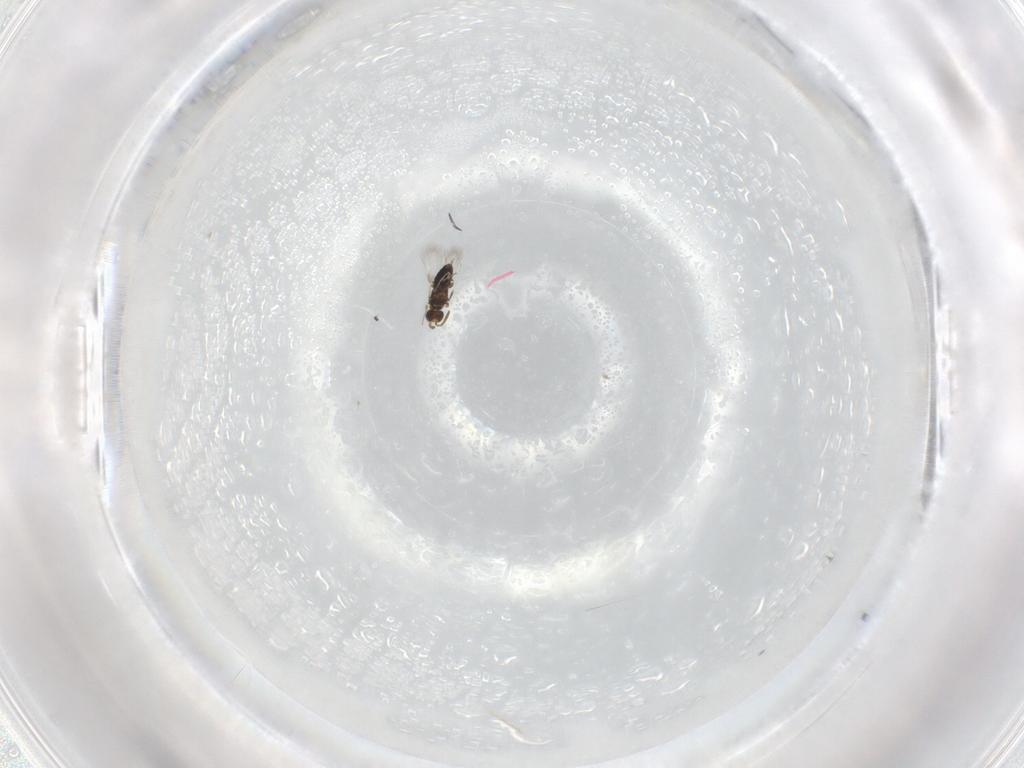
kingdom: Animalia
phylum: Arthropoda
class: Insecta
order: Hymenoptera
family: Signiphoridae
